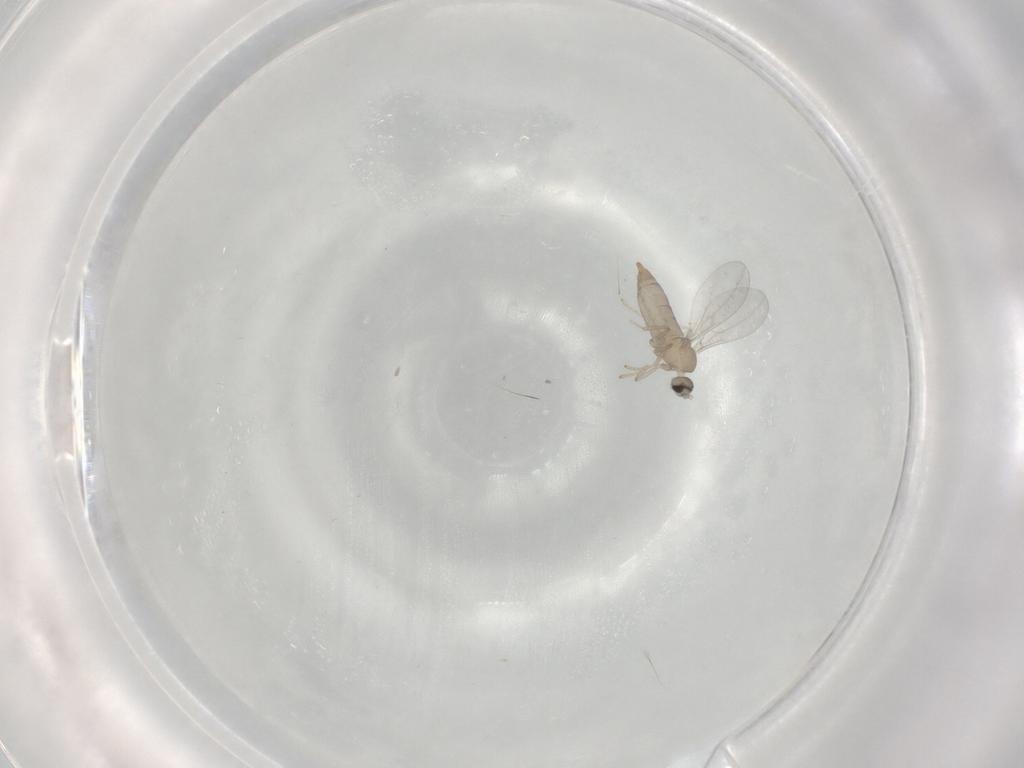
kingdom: Animalia
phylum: Arthropoda
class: Insecta
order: Diptera
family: Cecidomyiidae
